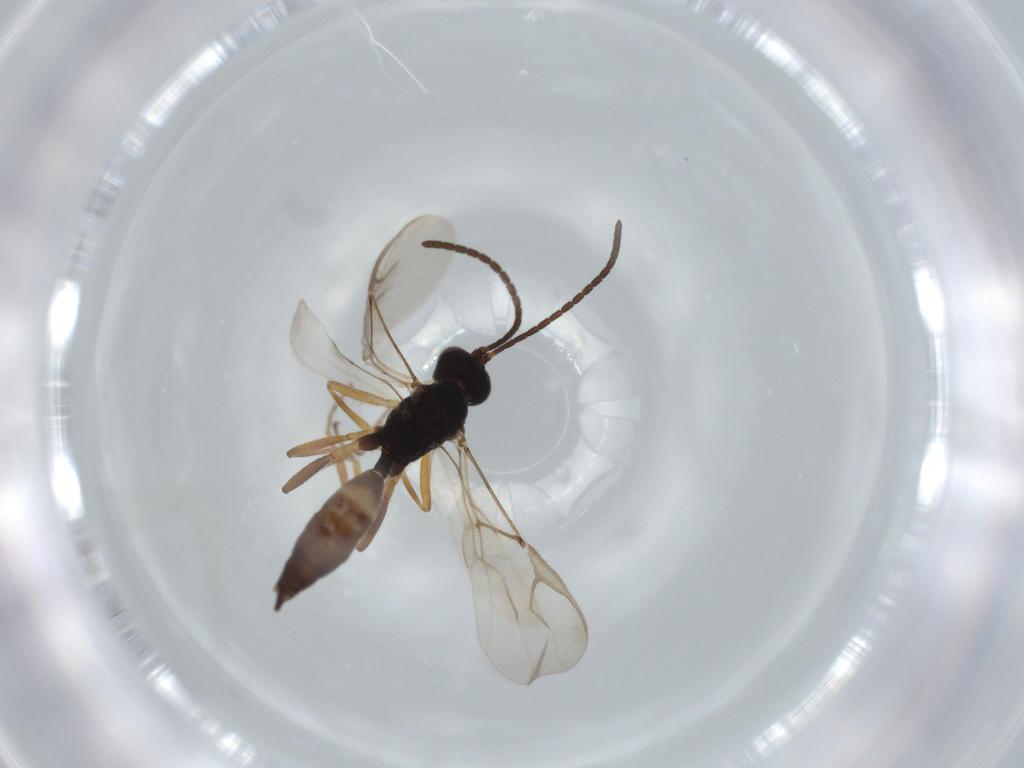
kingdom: Animalia
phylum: Arthropoda
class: Insecta
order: Hymenoptera
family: Braconidae
